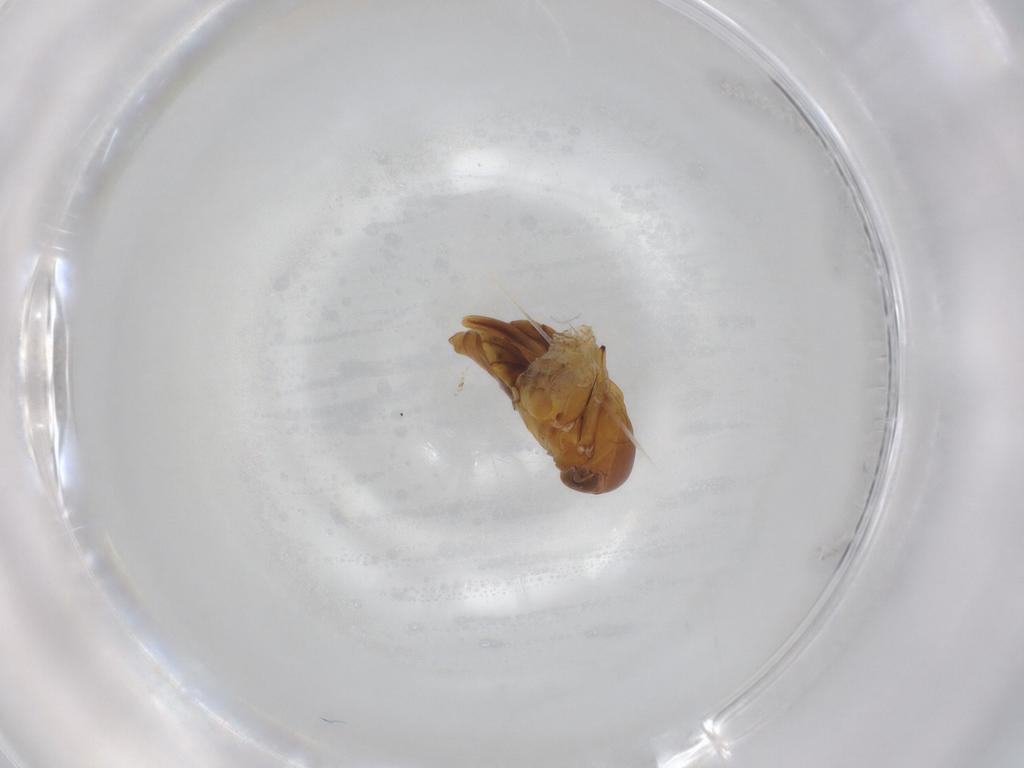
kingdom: Animalia
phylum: Arthropoda
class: Insecta
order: Hemiptera
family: Delphacidae
